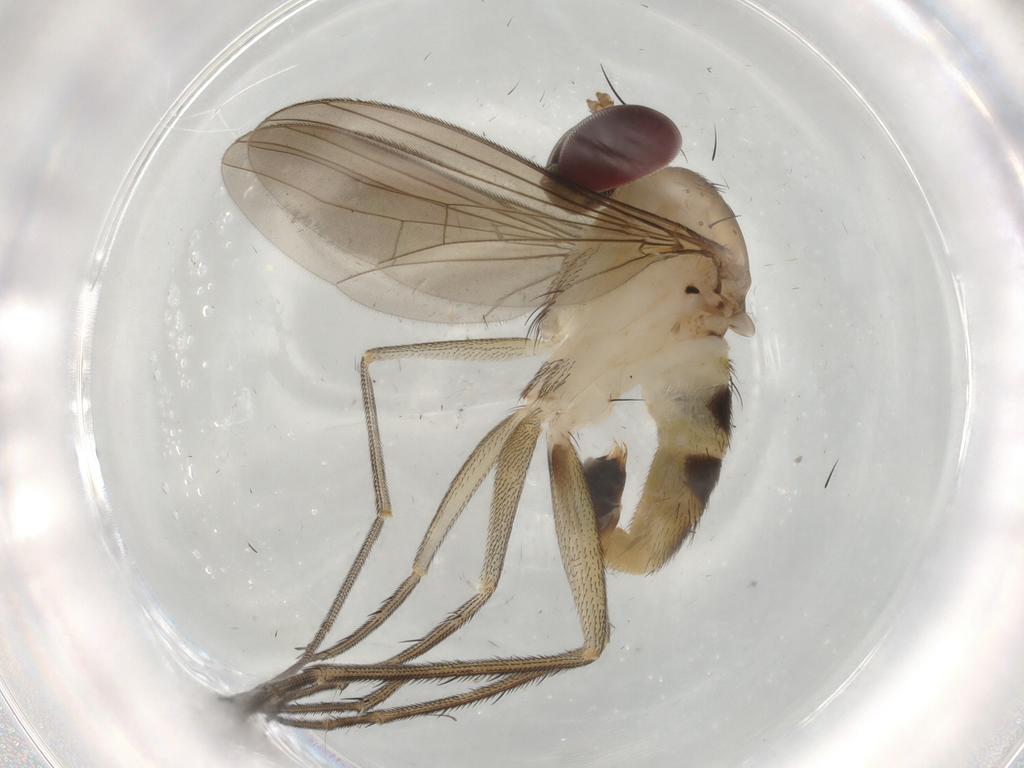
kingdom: Animalia
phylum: Arthropoda
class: Insecta
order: Diptera
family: Dolichopodidae
